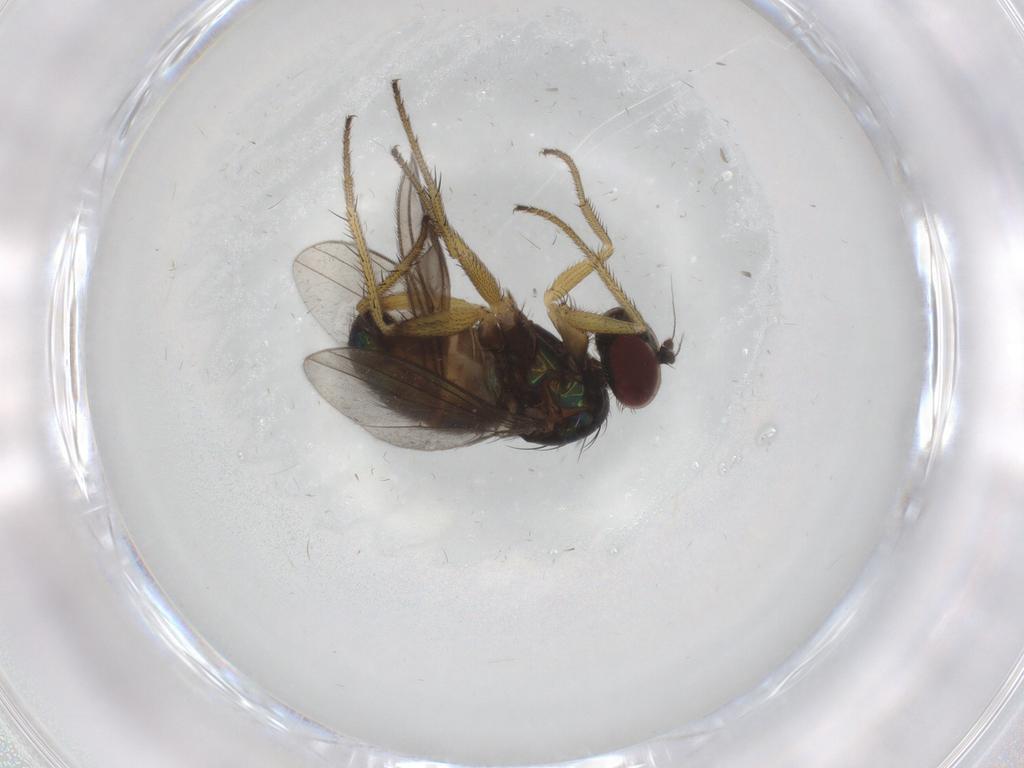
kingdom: Animalia
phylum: Arthropoda
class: Insecta
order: Diptera
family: Dolichopodidae
